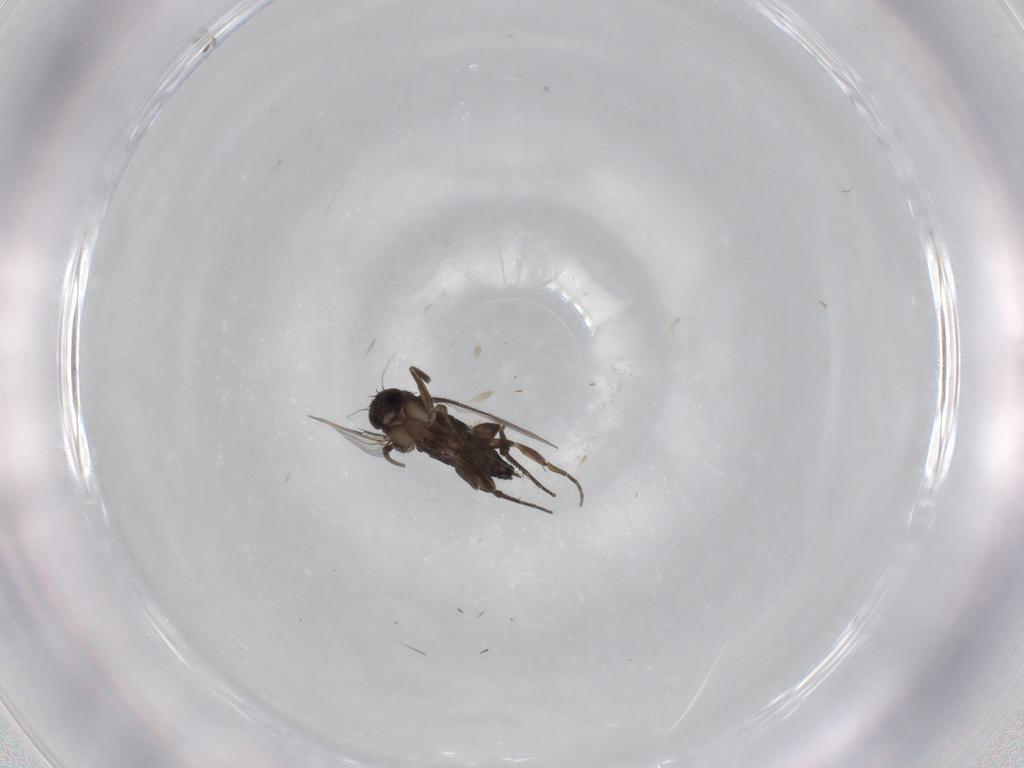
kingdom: Animalia
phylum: Arthropoda
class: Insecta
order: Diptera
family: Phoridae
